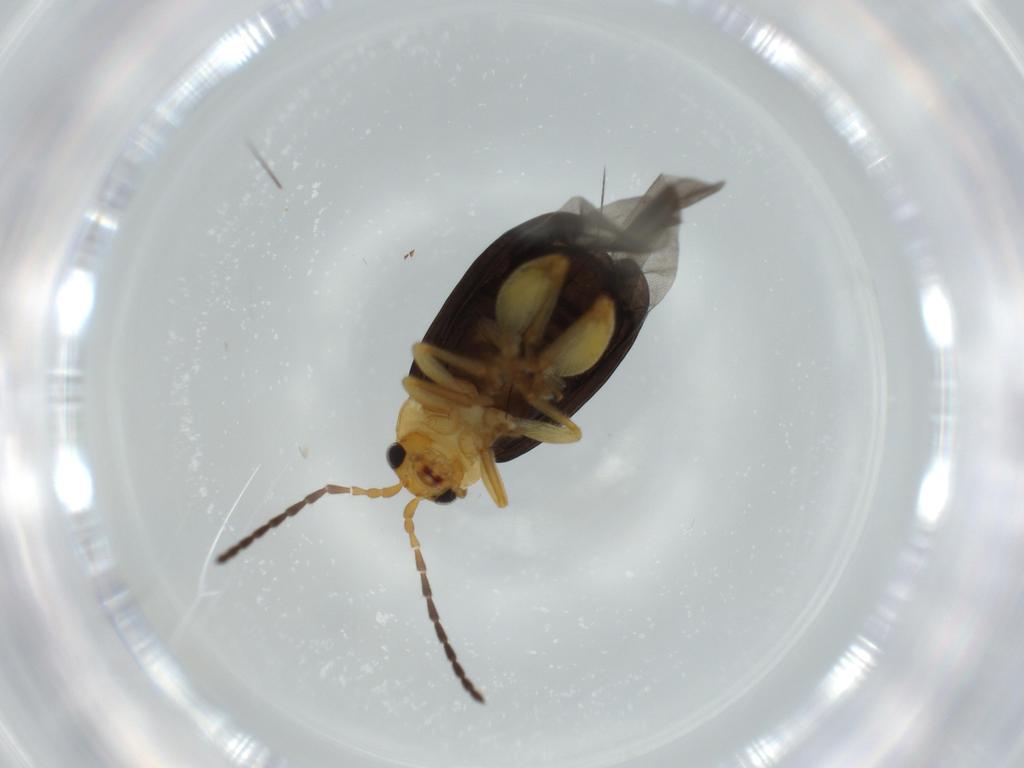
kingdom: Animalia
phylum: Arthropoda
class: Insecta
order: Coleoptera
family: Chrysomelidae
